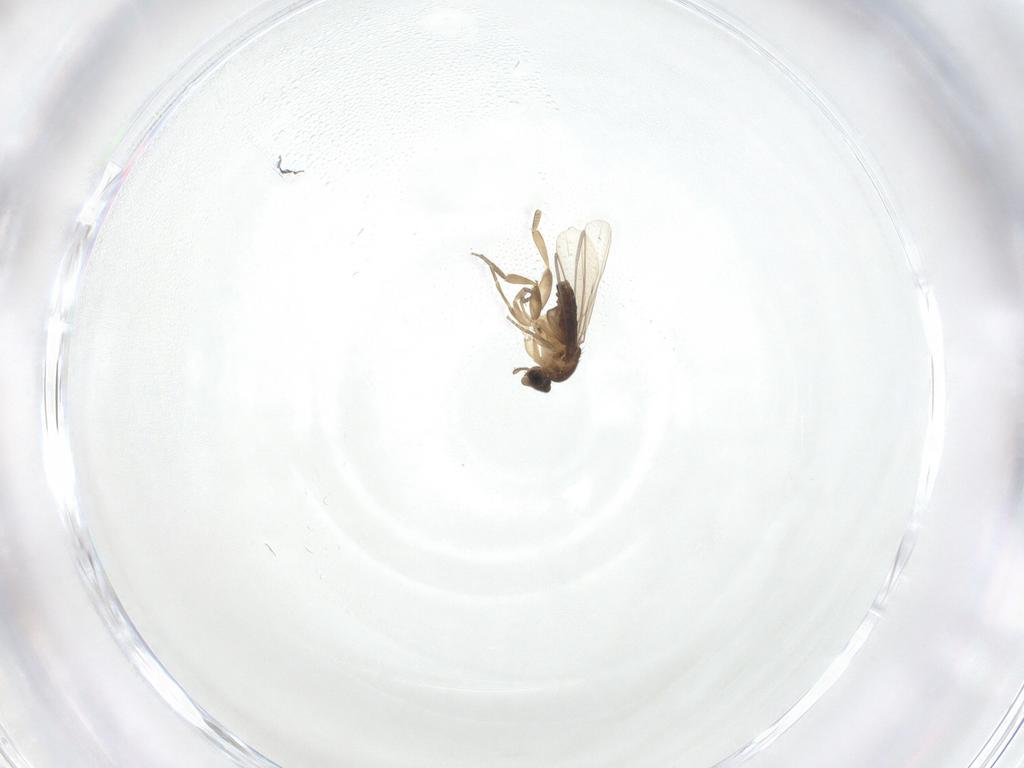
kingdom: Animalia
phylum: Arthropoda
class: Insecta
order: Diptera
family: Phoridae
